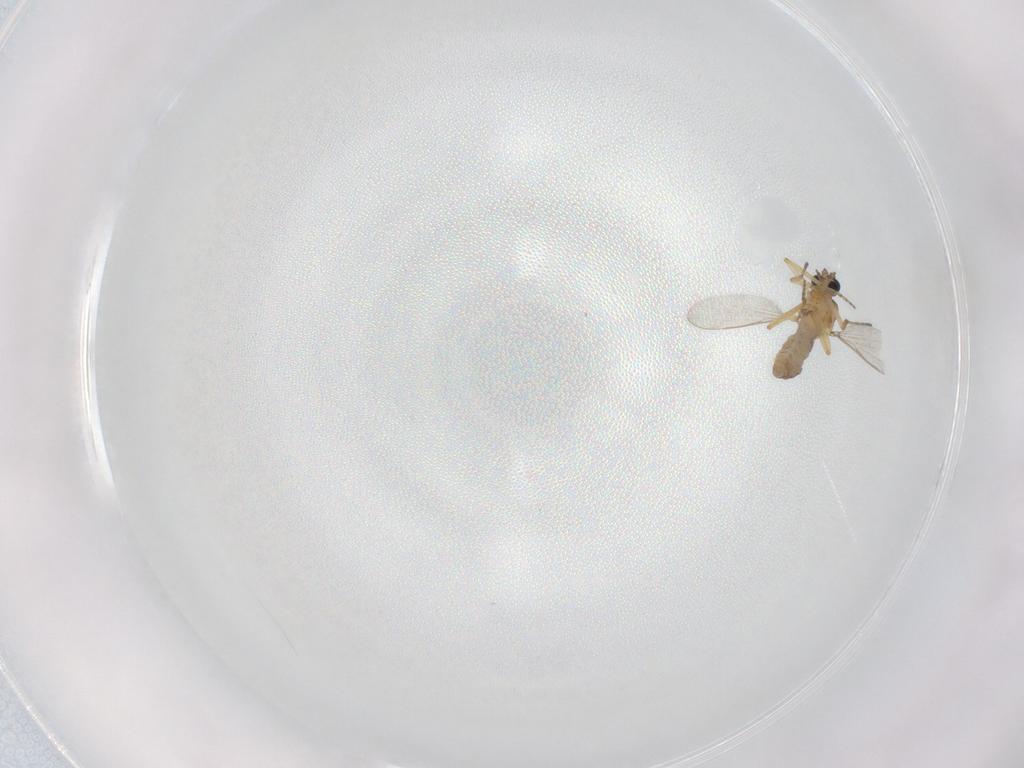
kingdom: Animalia
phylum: Arthropoda
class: Insecta
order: Diptera
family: Ceratopogonidae
